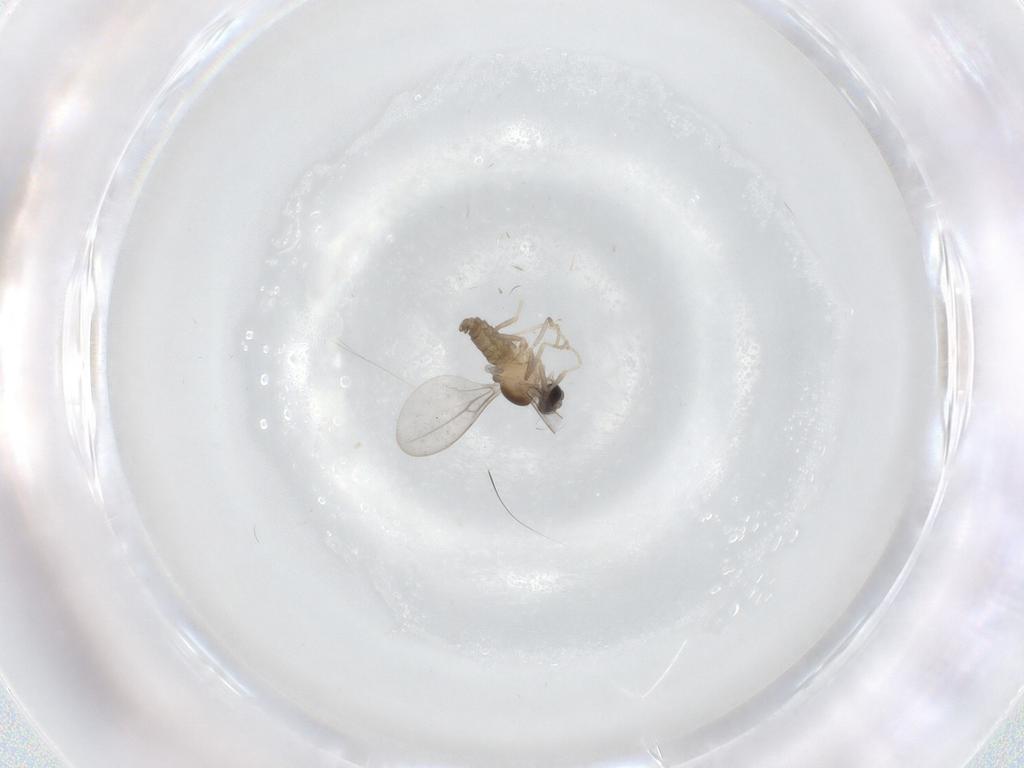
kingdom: Animalia
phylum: Arthropoda
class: Insecta
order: Diptera
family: Cecidomyiidae
